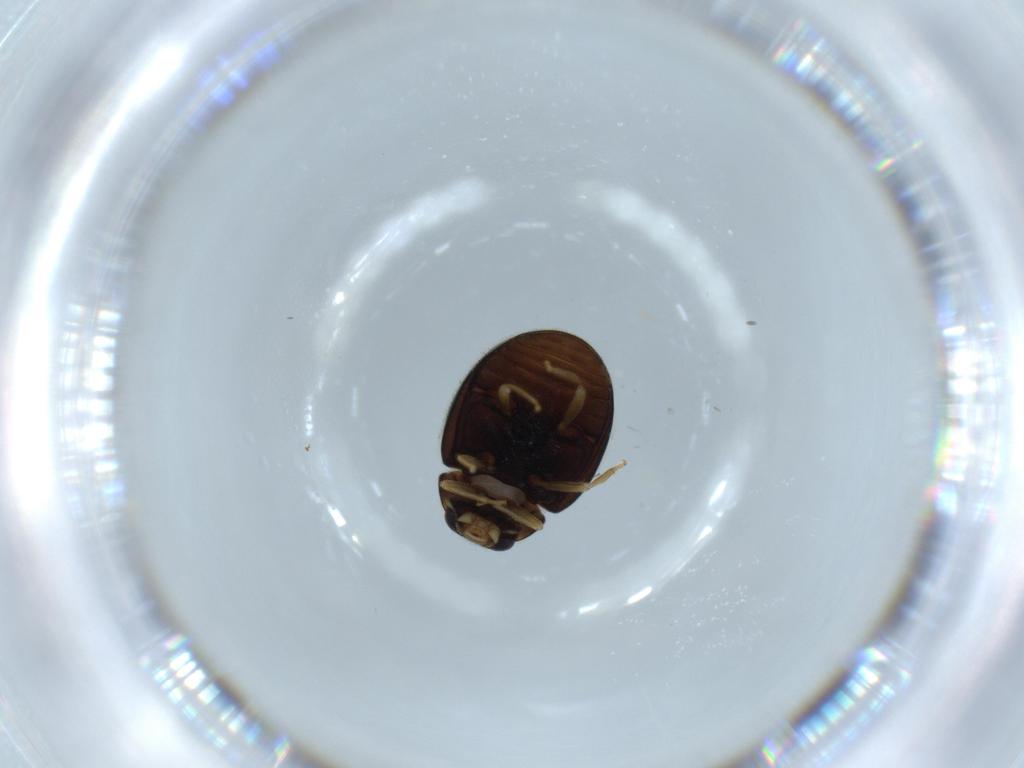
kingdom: Animalia
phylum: Arthropoda
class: Insecta
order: Coleoptera
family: Coccinellidae
